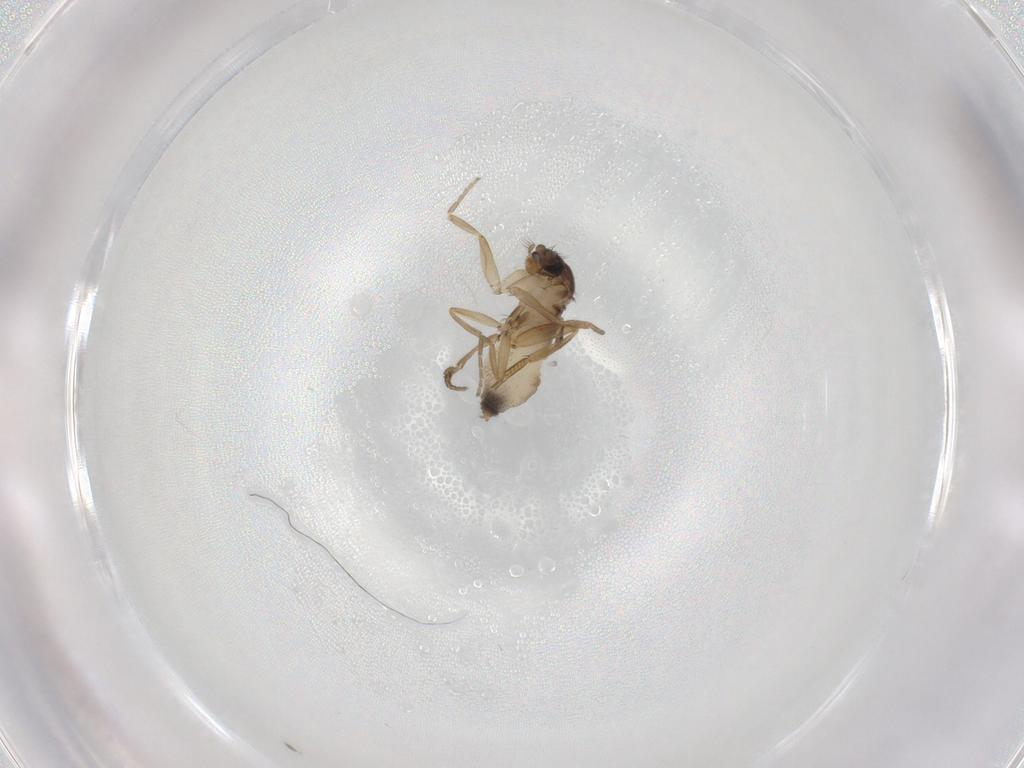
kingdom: Animalia
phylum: Arthropoda
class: Insecta
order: Diptera
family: Phoridae
